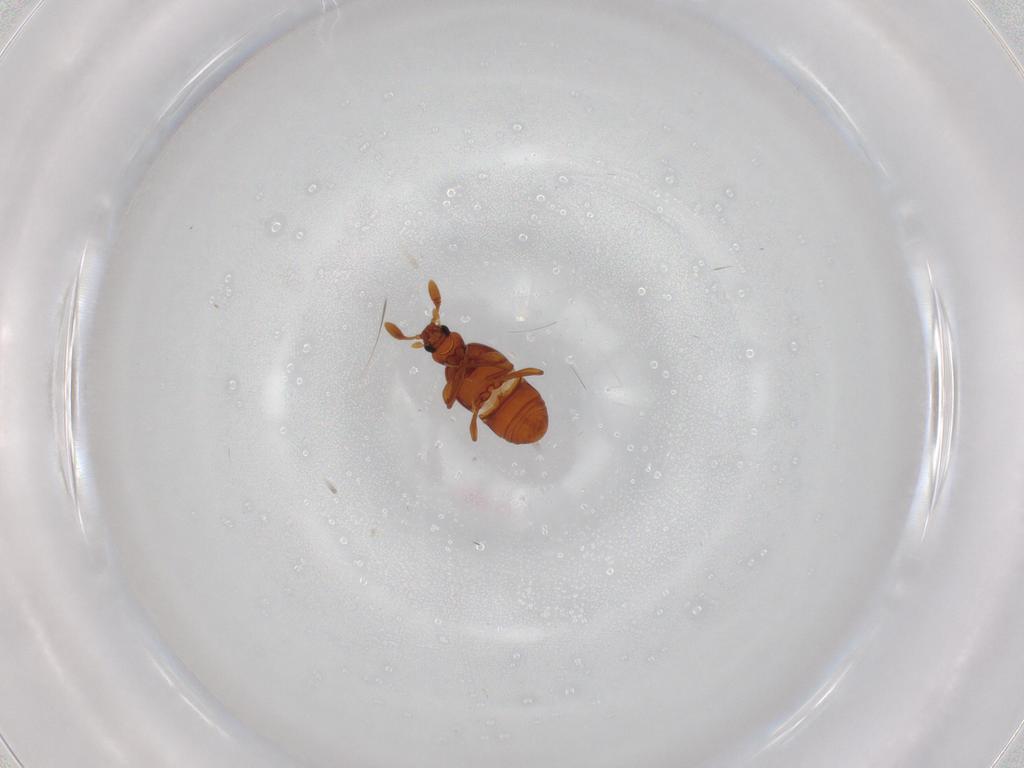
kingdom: Animalia
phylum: Arthropoda
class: Insecta
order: Coleoptera
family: Staphylinidae
